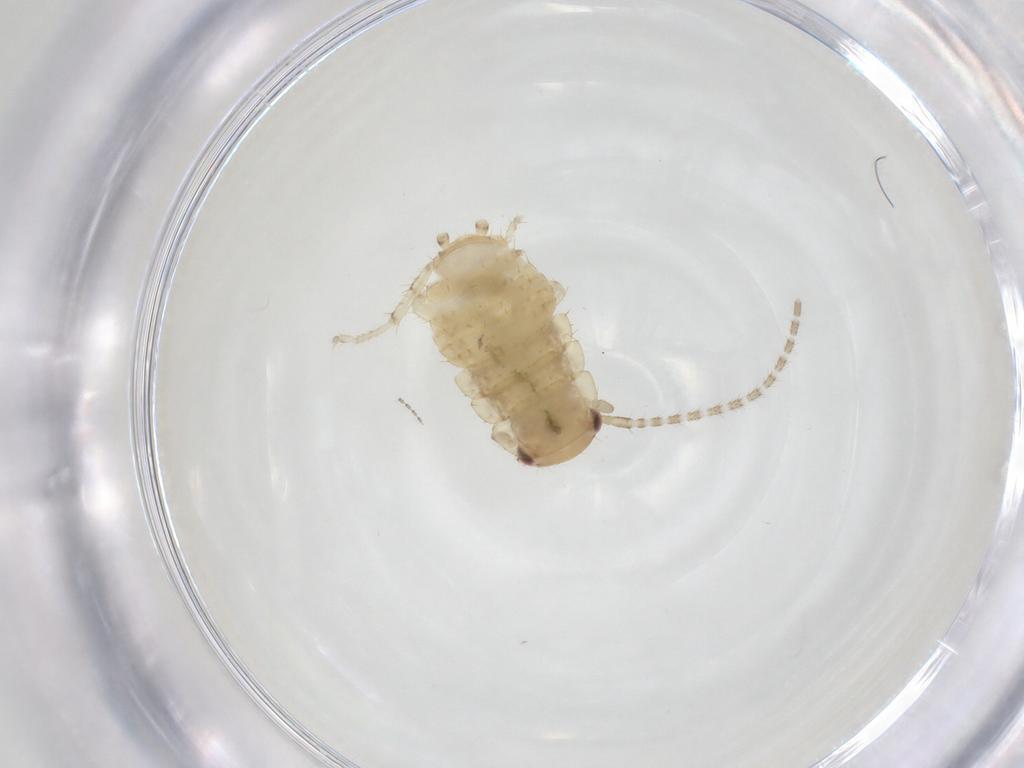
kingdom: Animalia
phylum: Arthropoda
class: Insecta
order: Blattodea
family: Ectobiidae
